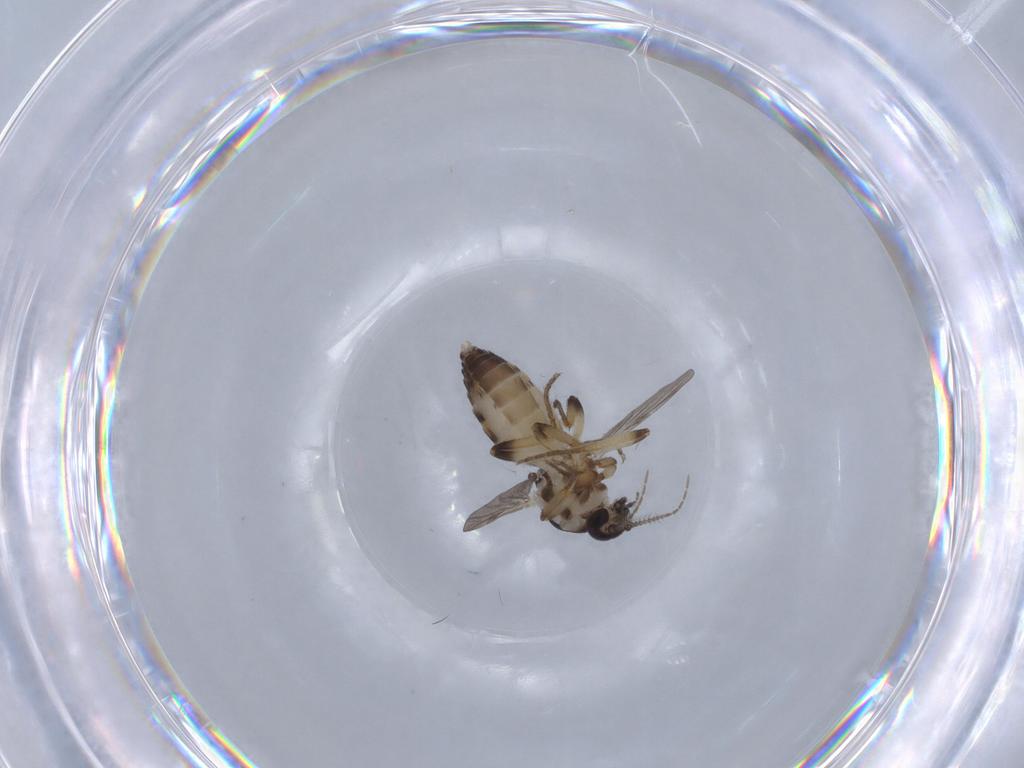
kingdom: Animalia
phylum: Arthropoda
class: Insecta
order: Diptera
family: Ceratopogonidae
